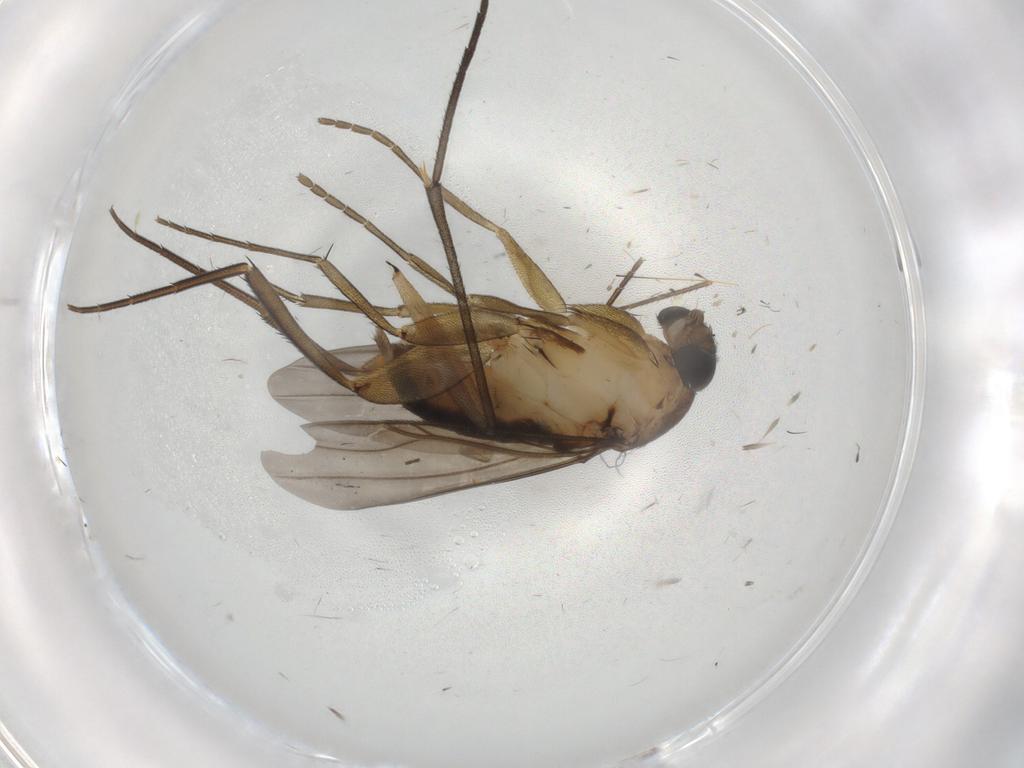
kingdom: Animalia
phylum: Arthropoda
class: Insecta
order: Diptera
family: Phoridae
